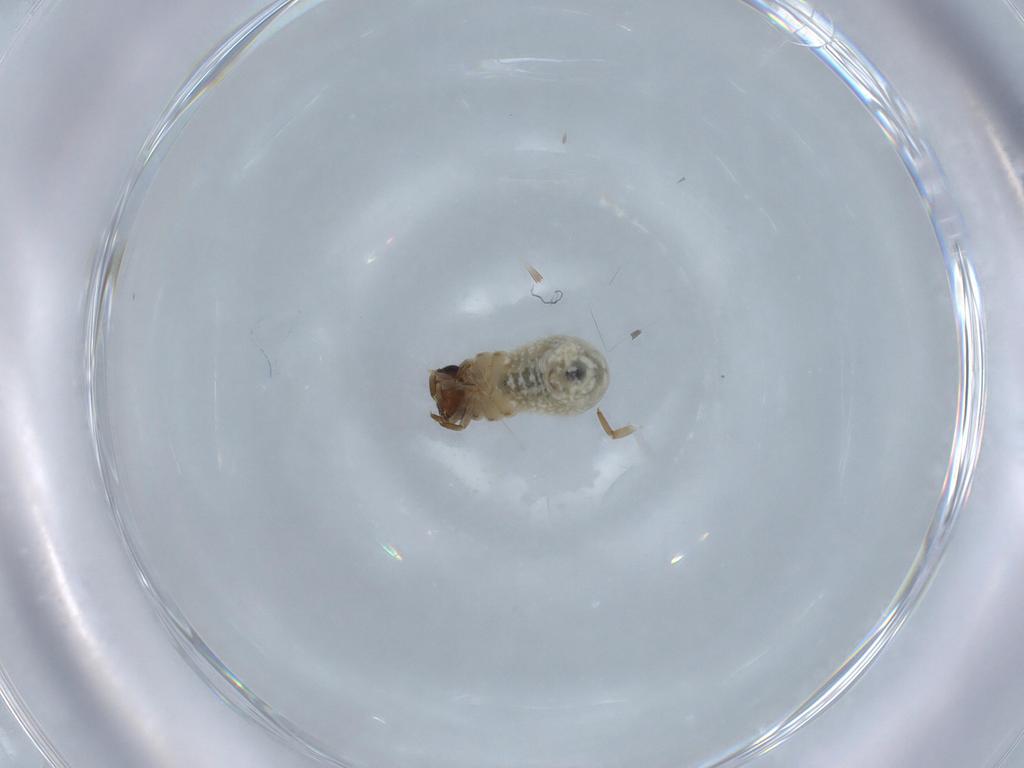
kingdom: Animalia
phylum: Arthropoda
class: Insecta
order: Coleoptera
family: Chrysomelidae
